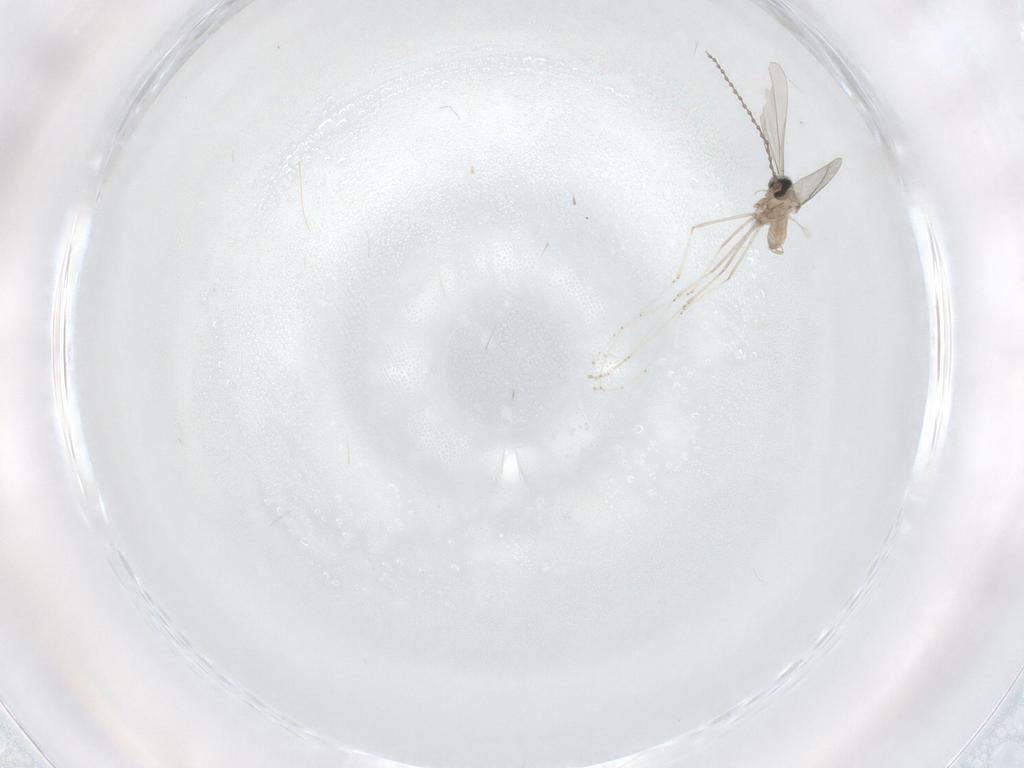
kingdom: Animalia
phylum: Arthropoda
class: Insecta
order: Diptera
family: Cecidomyiidae
